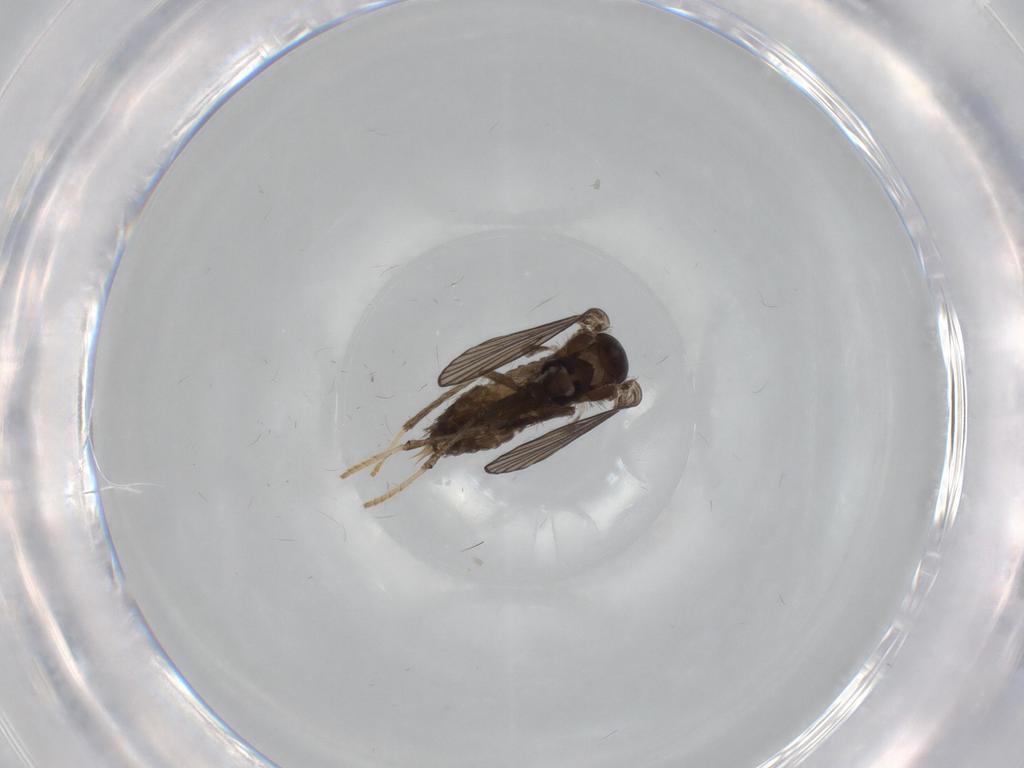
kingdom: Animalia
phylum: Arthropoda
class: Insecta
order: Diptera
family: Psychodidae
